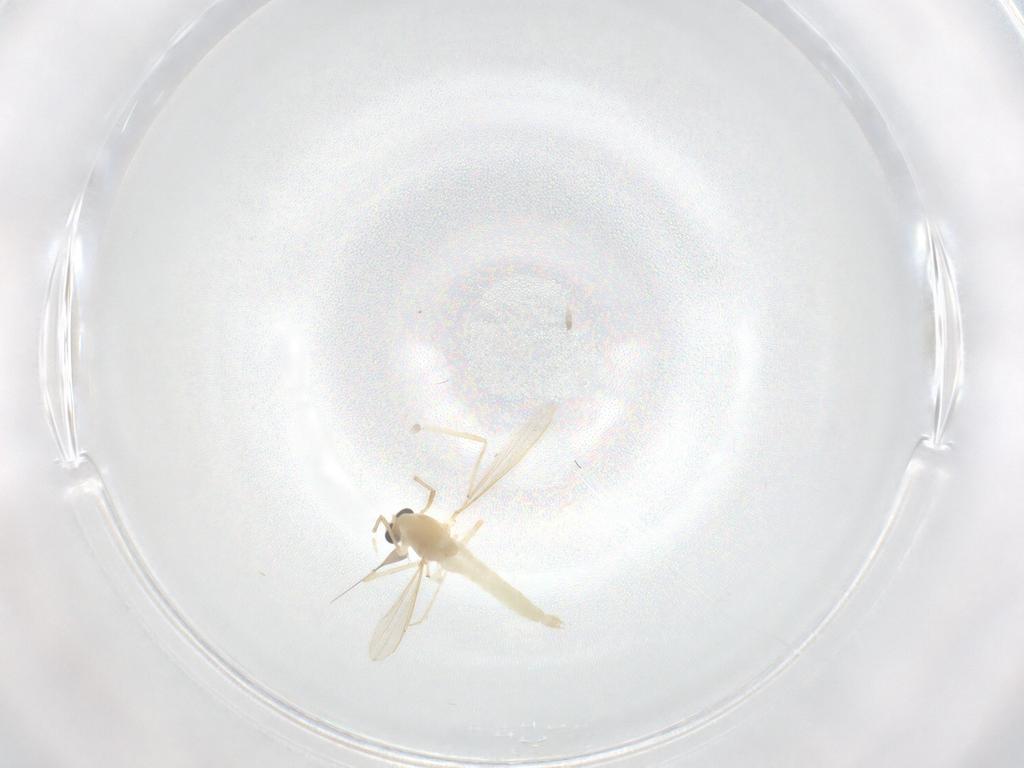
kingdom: Animalia
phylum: Arthropoda
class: Insecta
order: Diptera
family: Chironomidae
